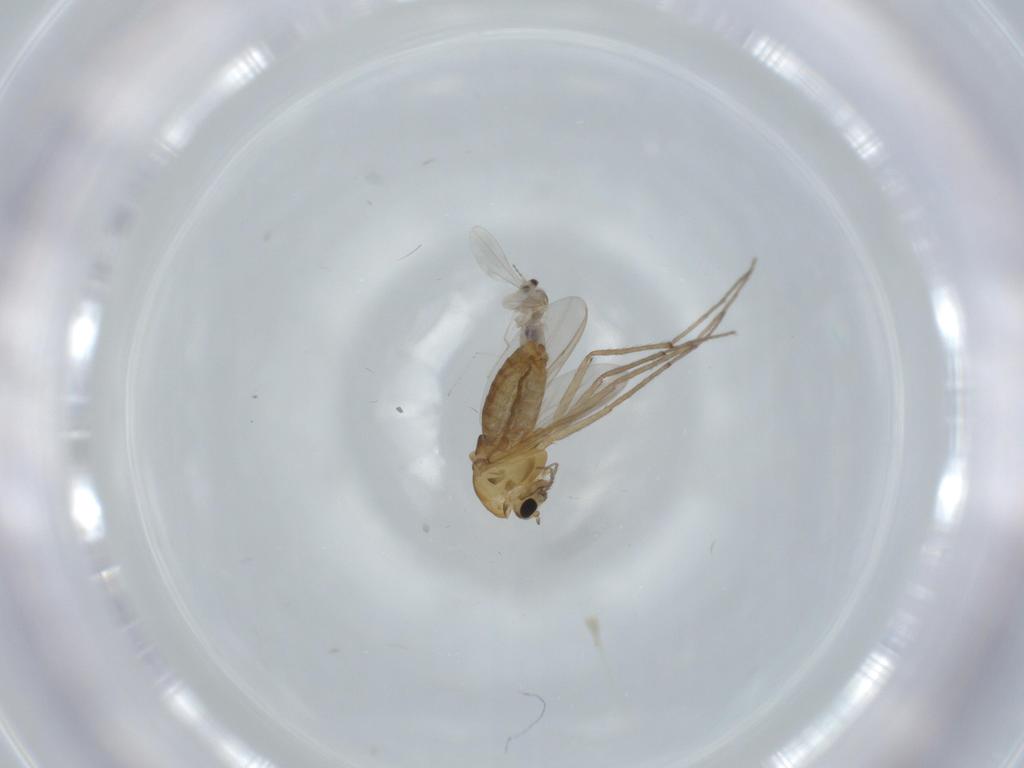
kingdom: Animalia
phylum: Arthropoda
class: Insecta
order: Diptera
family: Cecidomyiidae
